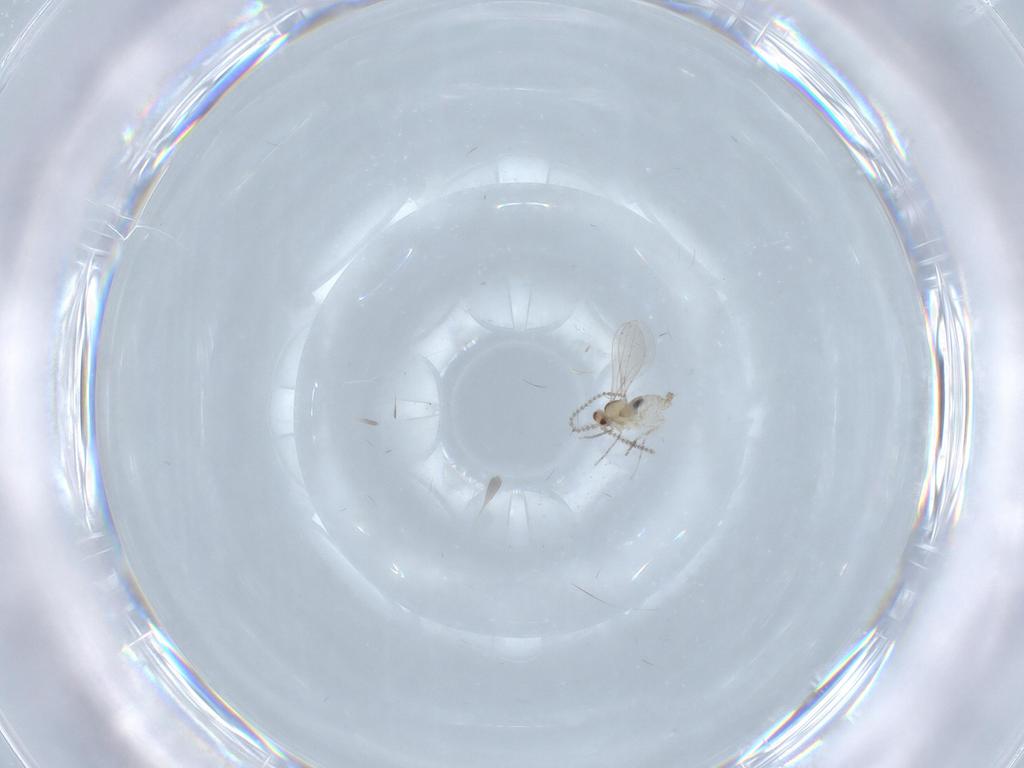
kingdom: Animalia
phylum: Arthropoda
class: Insecta
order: Diptera
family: Cecidomyiidae
